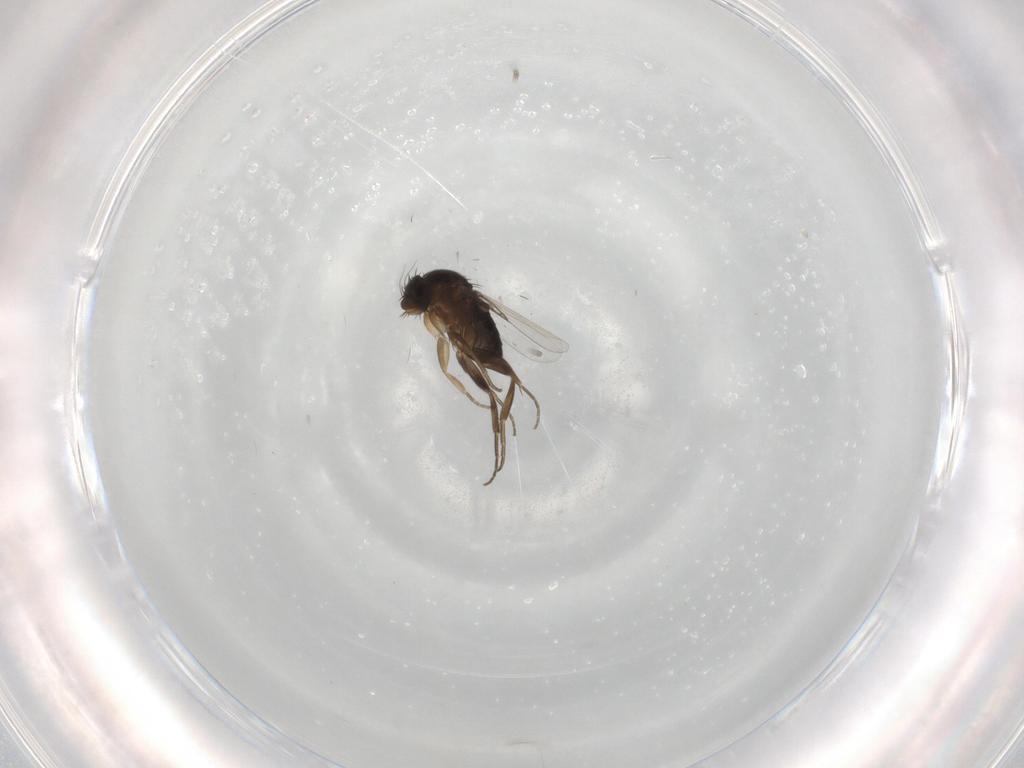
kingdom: Animalia
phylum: Arthropoda
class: Insecta
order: Diptera
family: Phoridae
